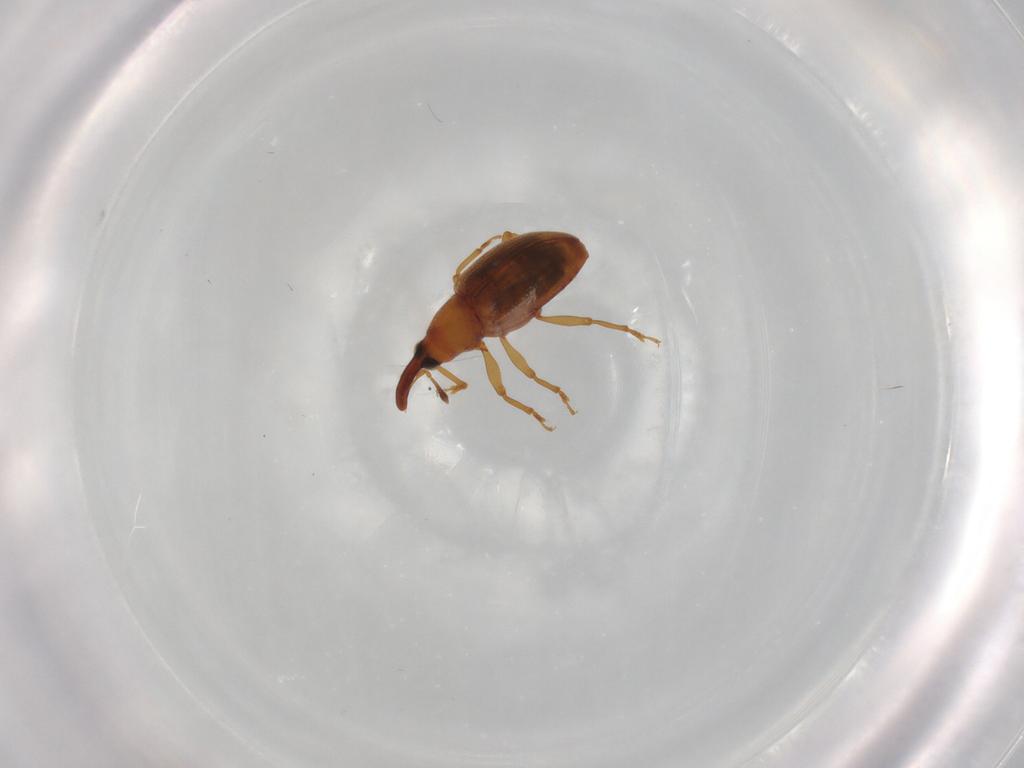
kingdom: Animalia
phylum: Arthropoda
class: Insecta
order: Coleoptera
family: Curculionidae
